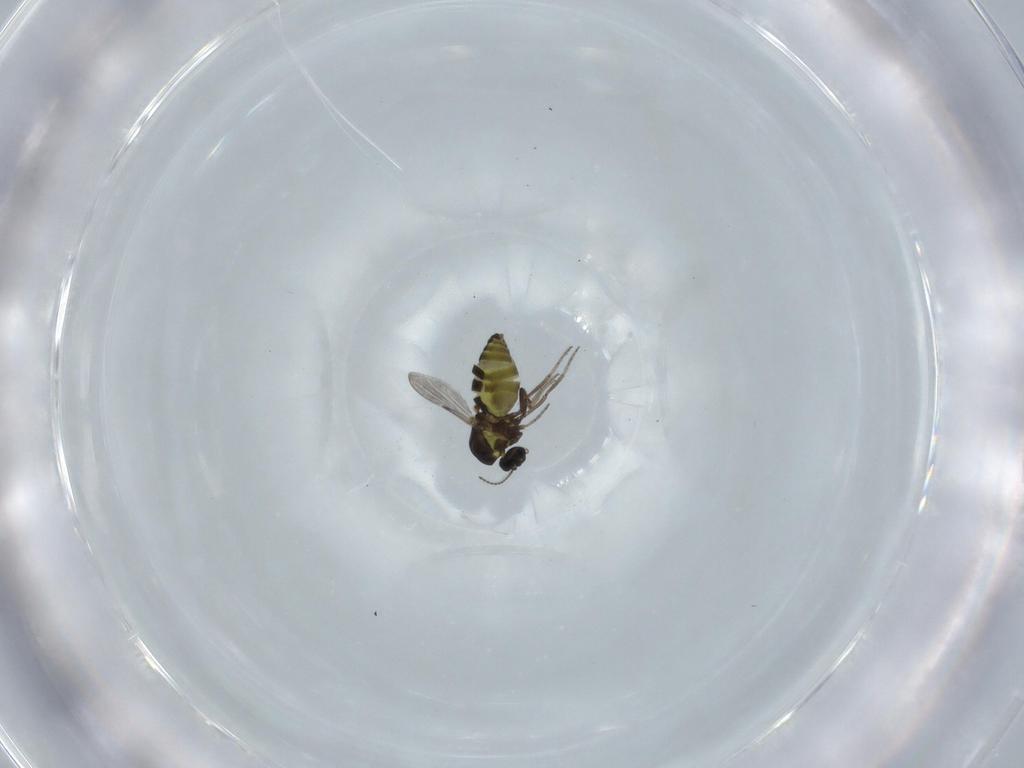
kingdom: Animalia
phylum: Arthropoda
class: Insecta
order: Diptera
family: Ceratopogonidae
